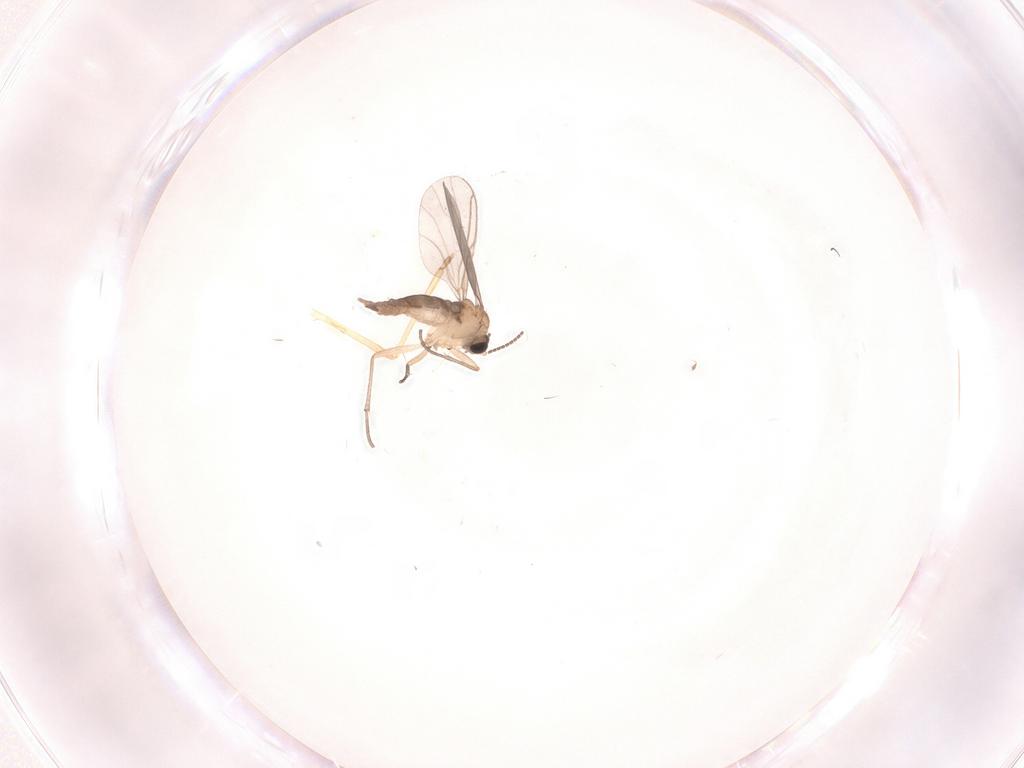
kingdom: Animalia
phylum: Arthropoda
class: Insecta
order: Diptera
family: Sciaridae
